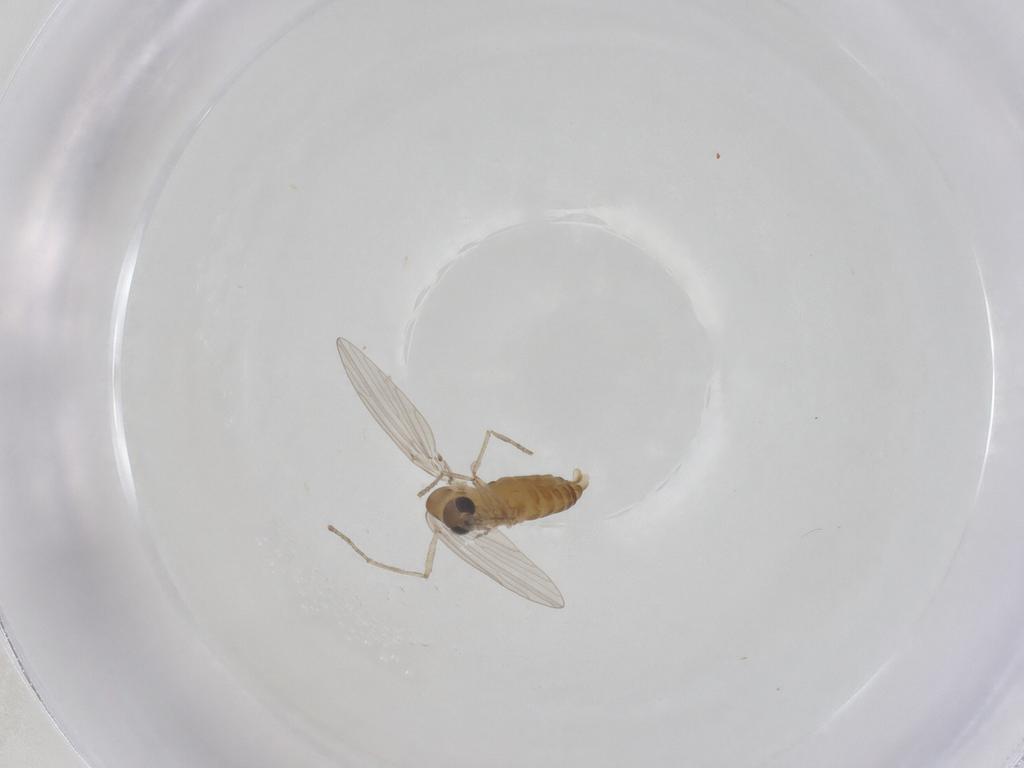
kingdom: Animalia
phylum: Arthropoda
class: Insecta
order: Diptera
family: Psychodidae
